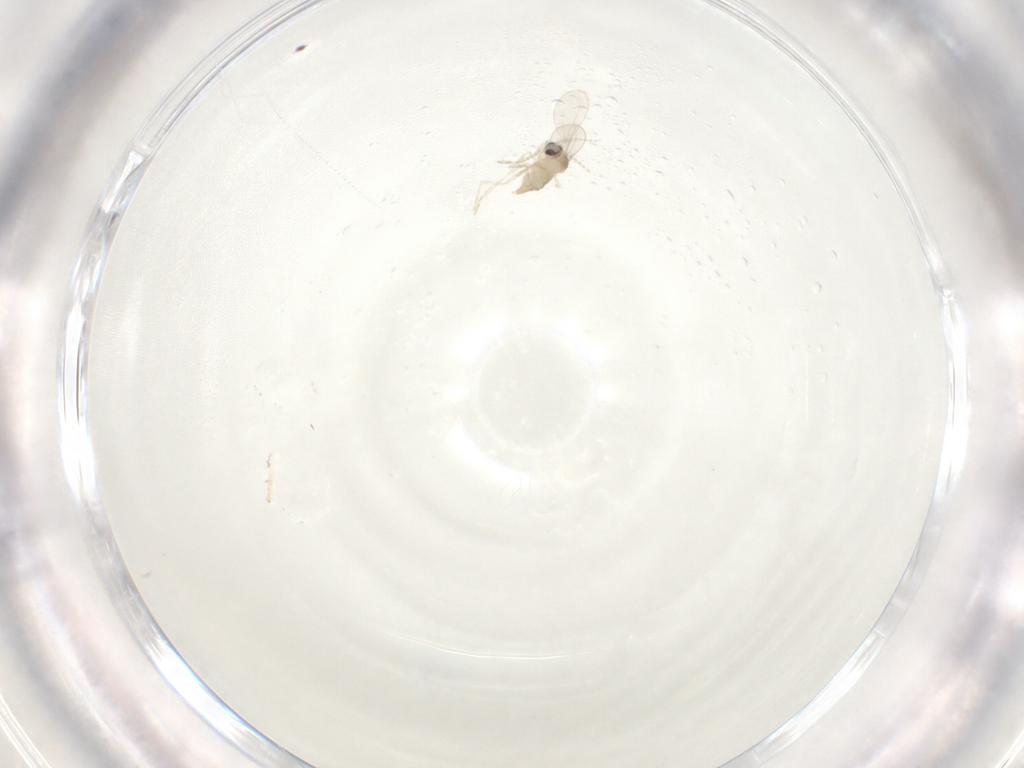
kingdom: Animalia
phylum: Arthropoda
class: Insecta
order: Diptera
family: Cecidomyiidae
